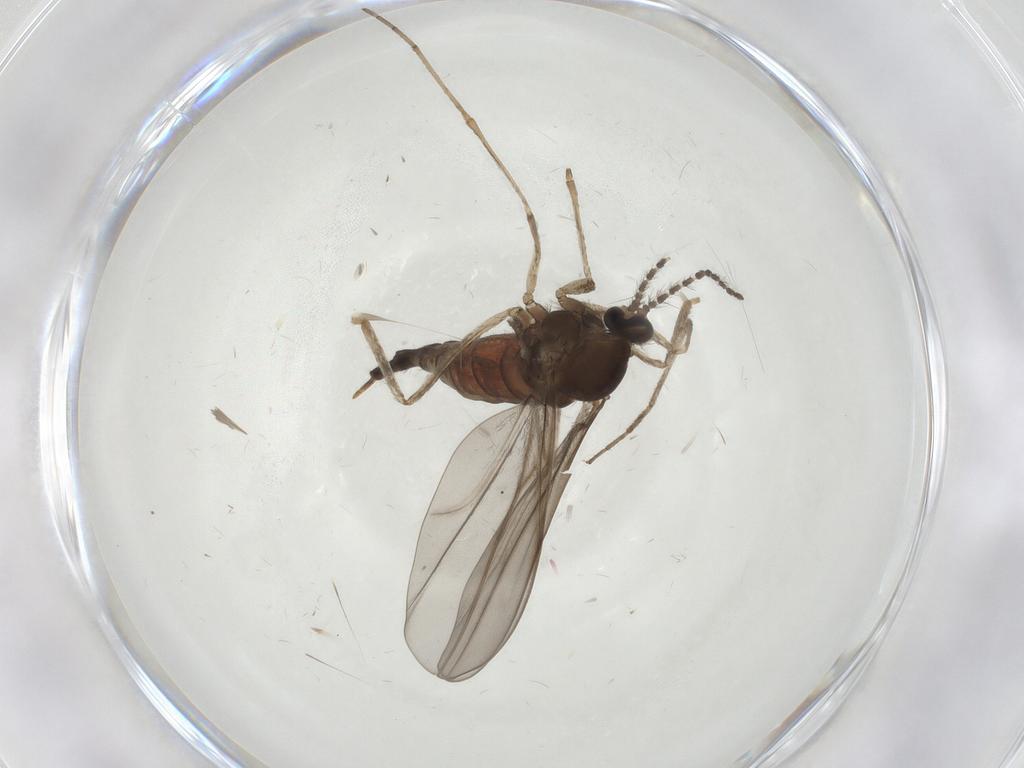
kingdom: Animalia
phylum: Arthropoda
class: Insecta
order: Diptera
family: Cecidomyiidae
